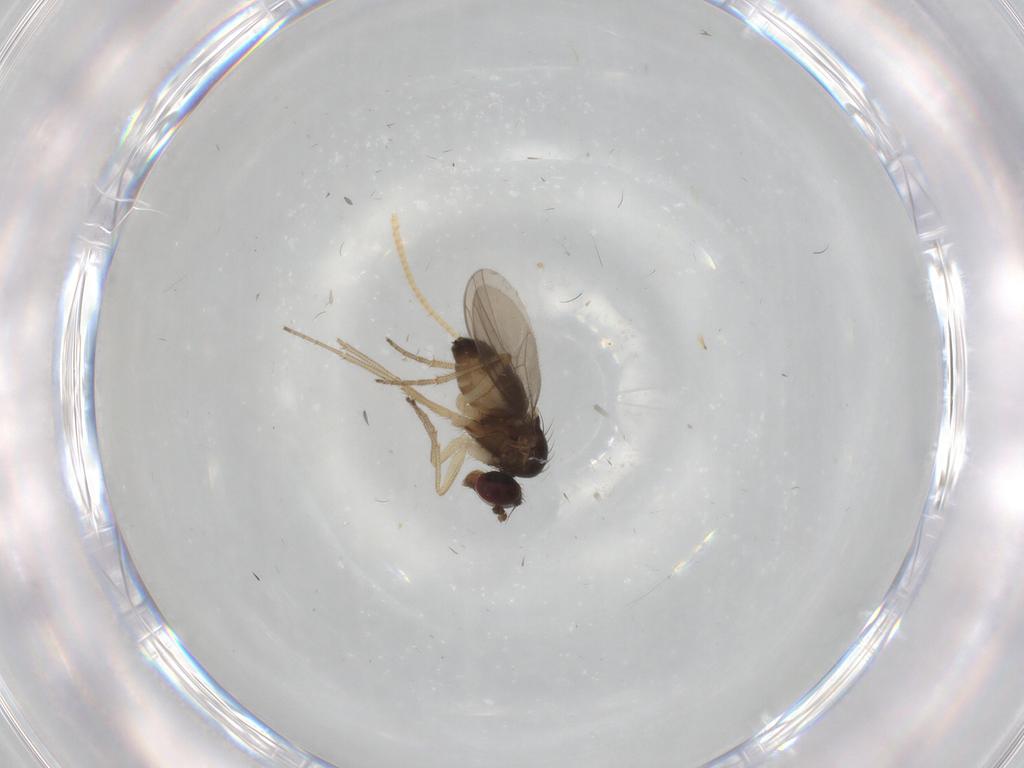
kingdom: Animalia
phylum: Arthropoda
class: Insecta
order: Diptera
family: Dolichopodidae
